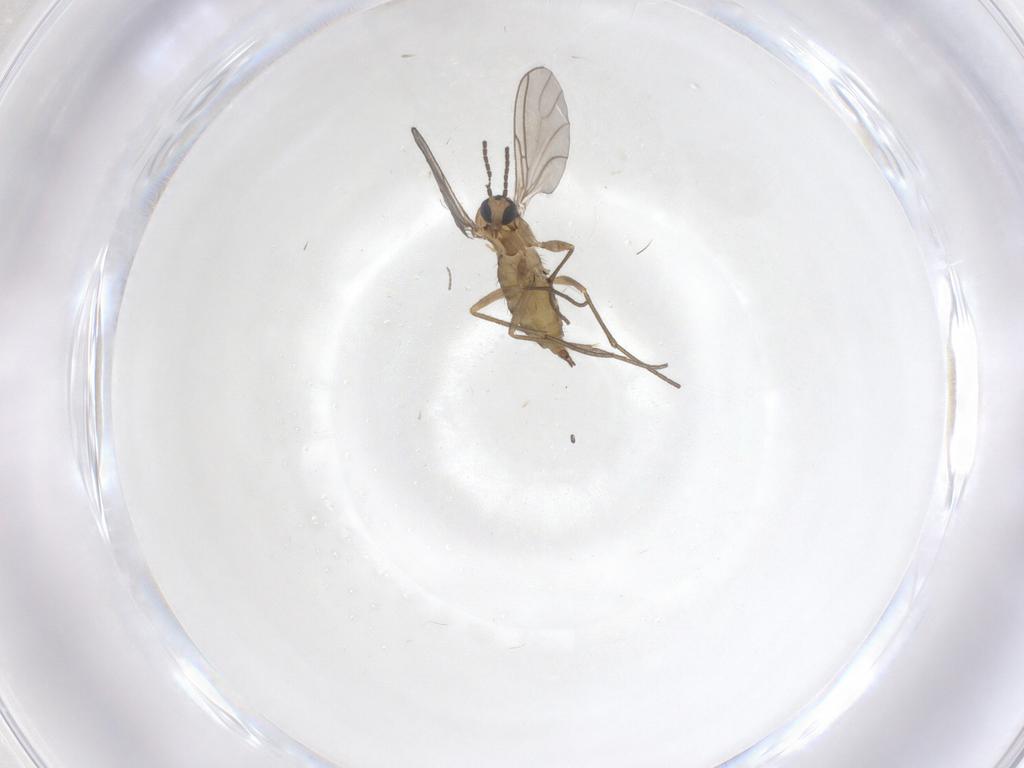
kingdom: Animalia
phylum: Arthropoda
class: Insecta
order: Diptera
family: Sciaridae
